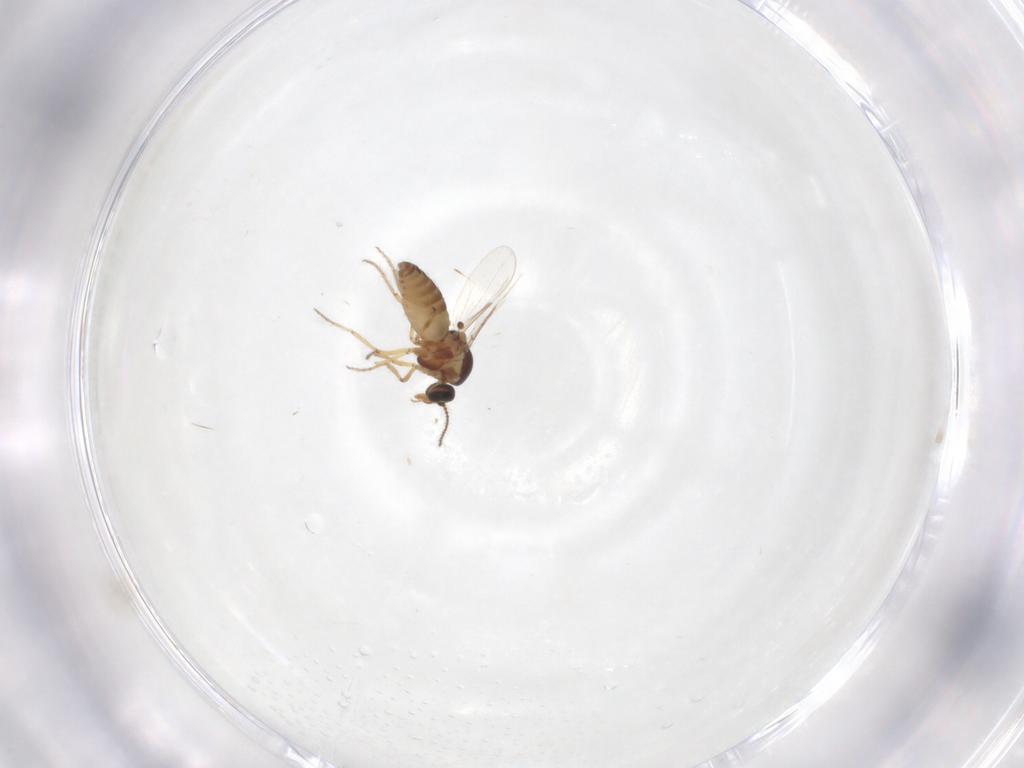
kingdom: Animalia
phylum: Arthropoda
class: Insecta
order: Diptera
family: Ceratopogonidae
